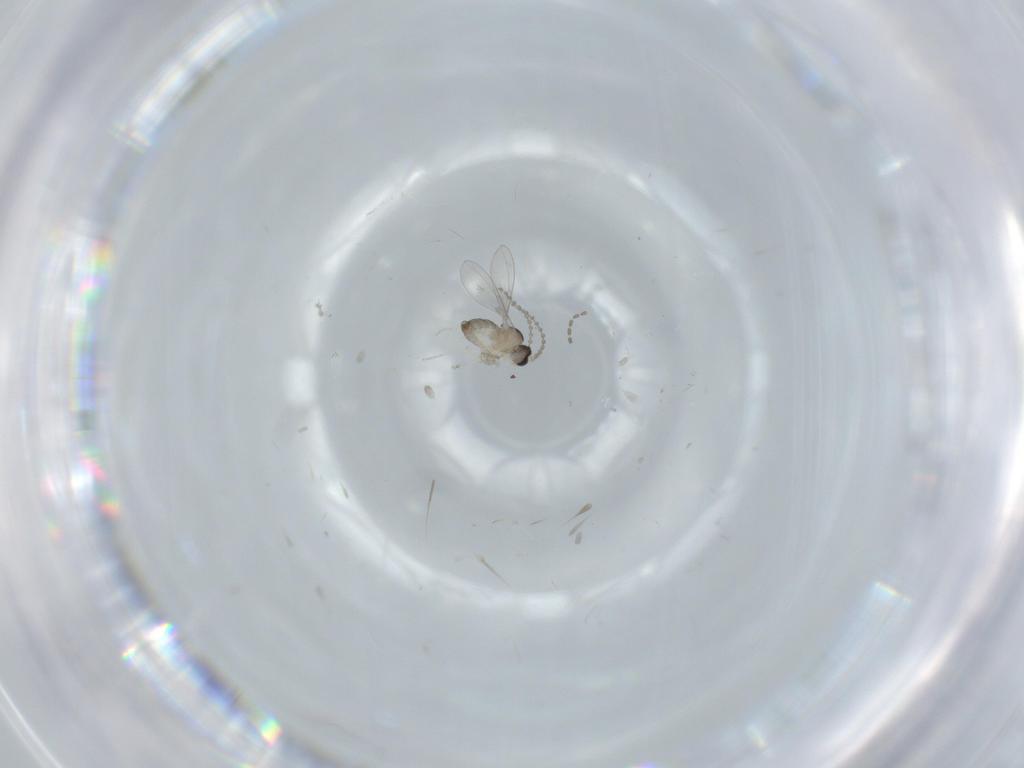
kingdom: Animalia
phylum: Arthropoda
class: Insecta
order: Diptera
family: Cecidomyiidae
